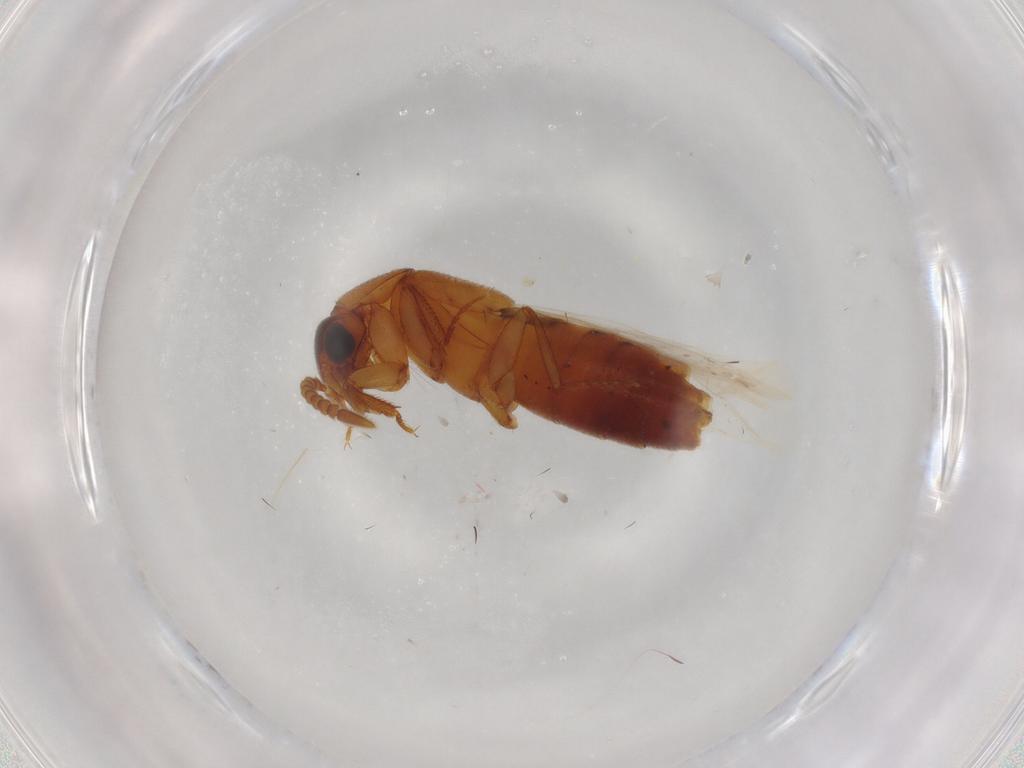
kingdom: Animalia
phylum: Arthropoda
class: Insecta
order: Coleoptera
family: Staphylinidae
